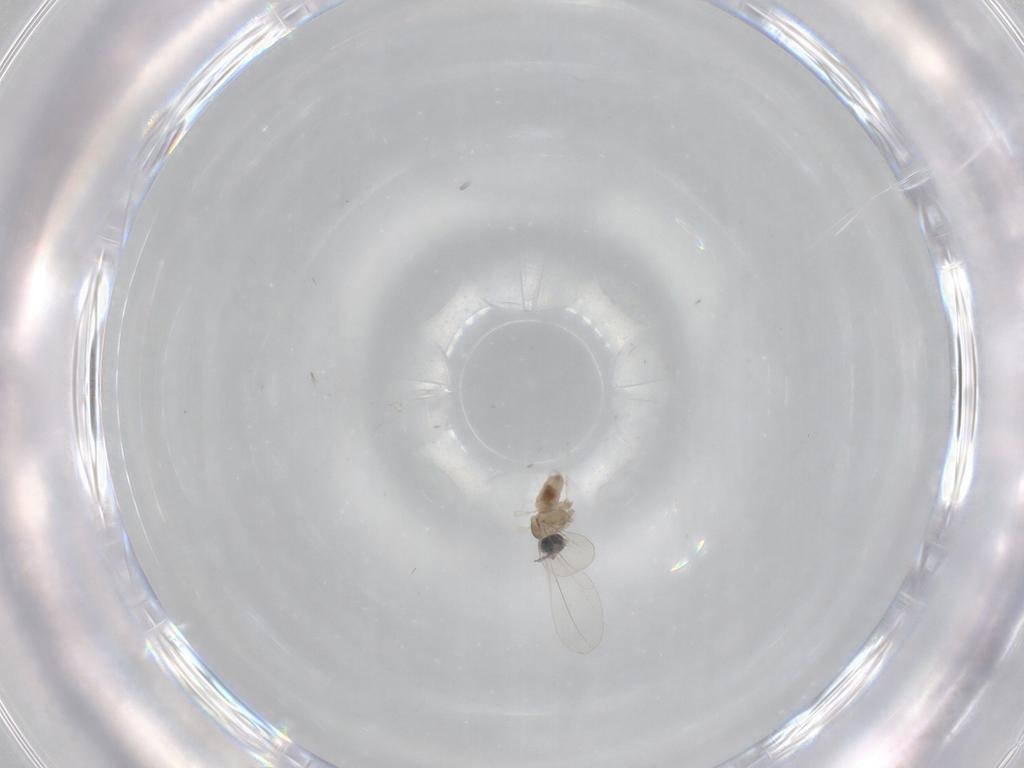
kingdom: Animalia
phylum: Arthropoda
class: Insecta
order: Diptera
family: Cecidomyiidae
